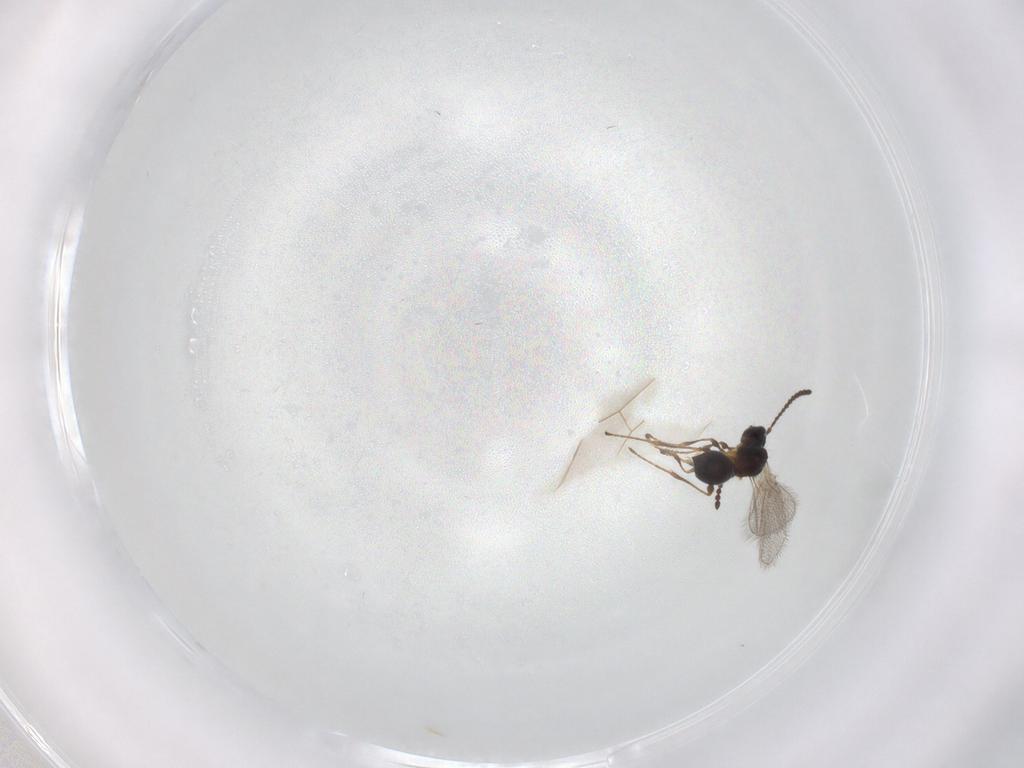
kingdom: Animalia
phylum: Arthropoda
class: Insecta
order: Hymenoptera
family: Diapriidae
